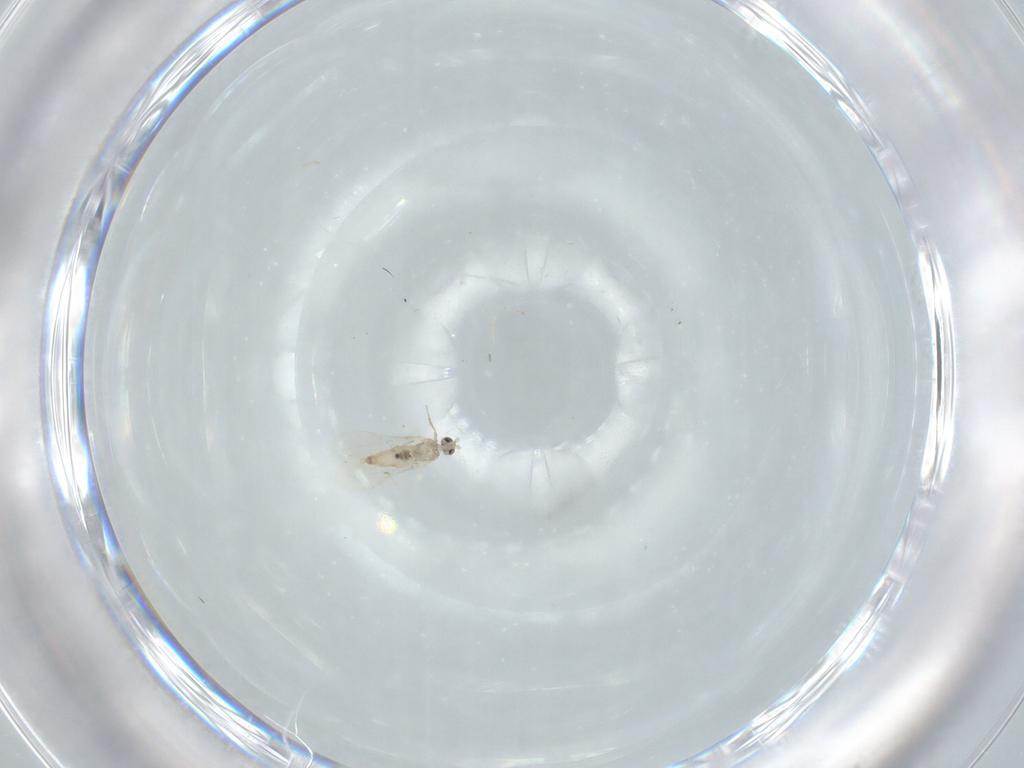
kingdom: Animalia
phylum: Arthropoda
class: Insecta
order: Diptera
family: Cecidomyiidae
